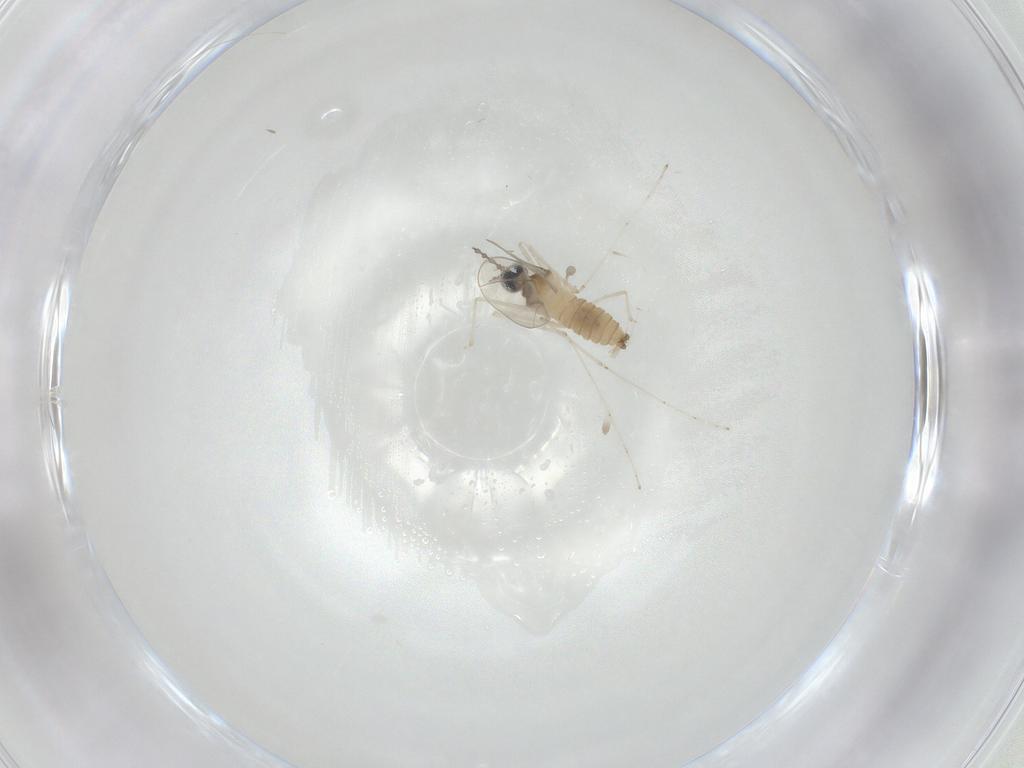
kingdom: Animalia
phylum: Arthropoda
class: Insecta
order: Diptera
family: Cecidomyiidae
